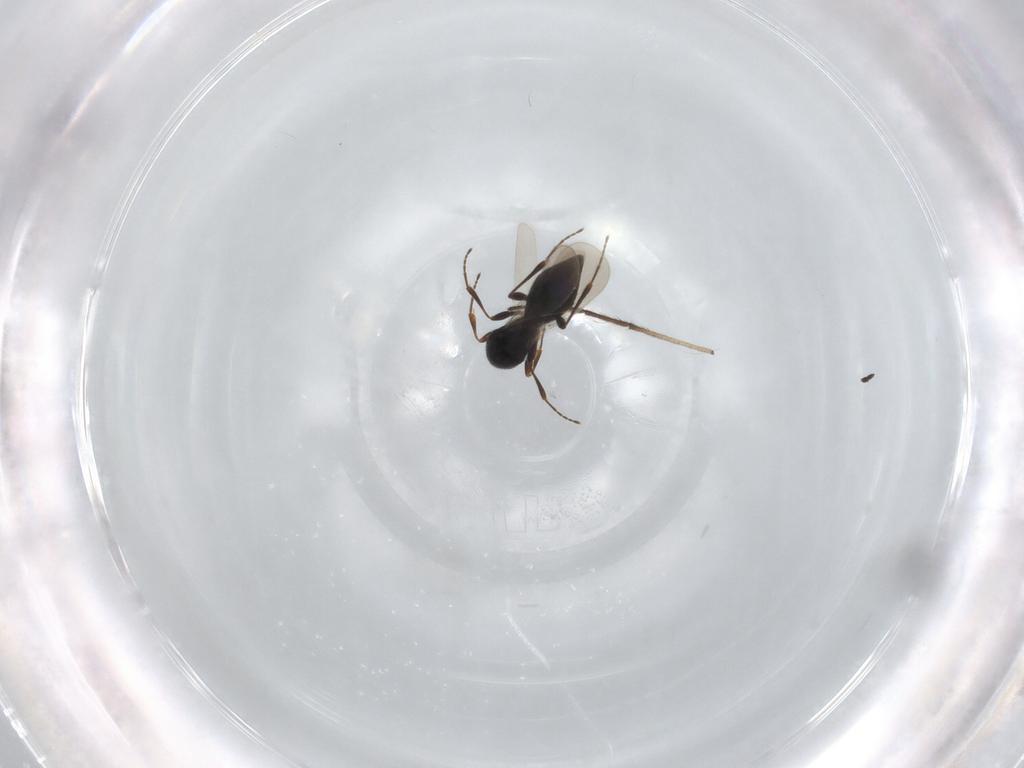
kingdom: Animalia
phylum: Arthropoda
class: Insecta
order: Hymenoptera
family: Platygastridae
